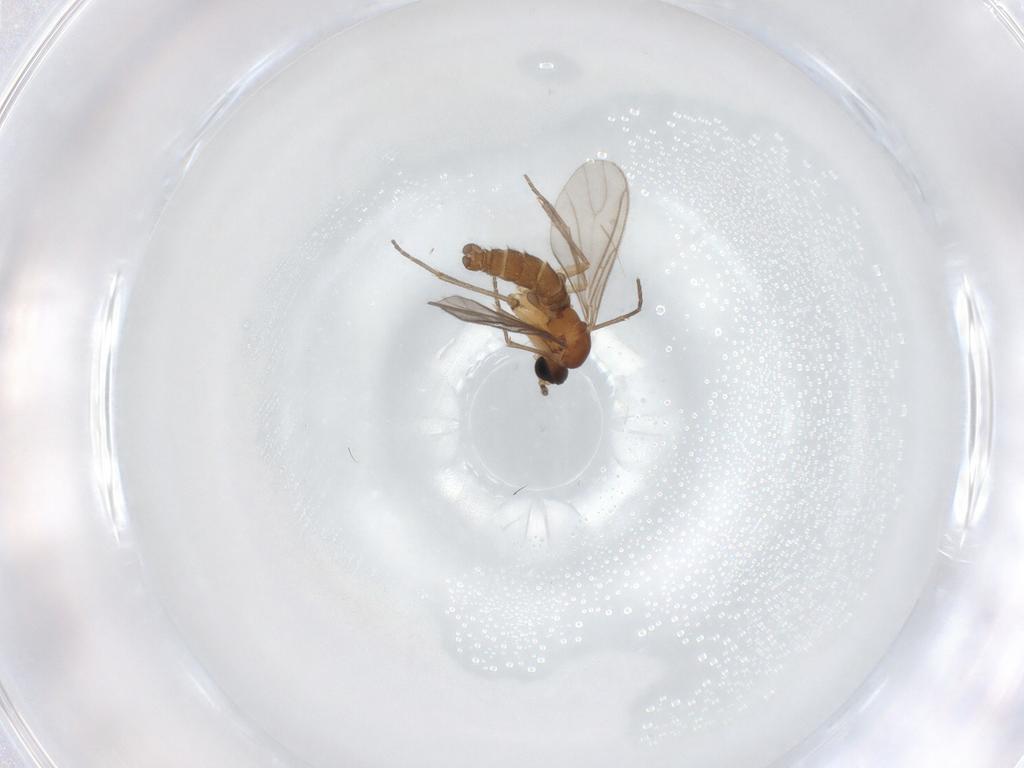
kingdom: Animalia
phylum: Arthropoda
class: Insecta
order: Diptera
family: Sciaridae
